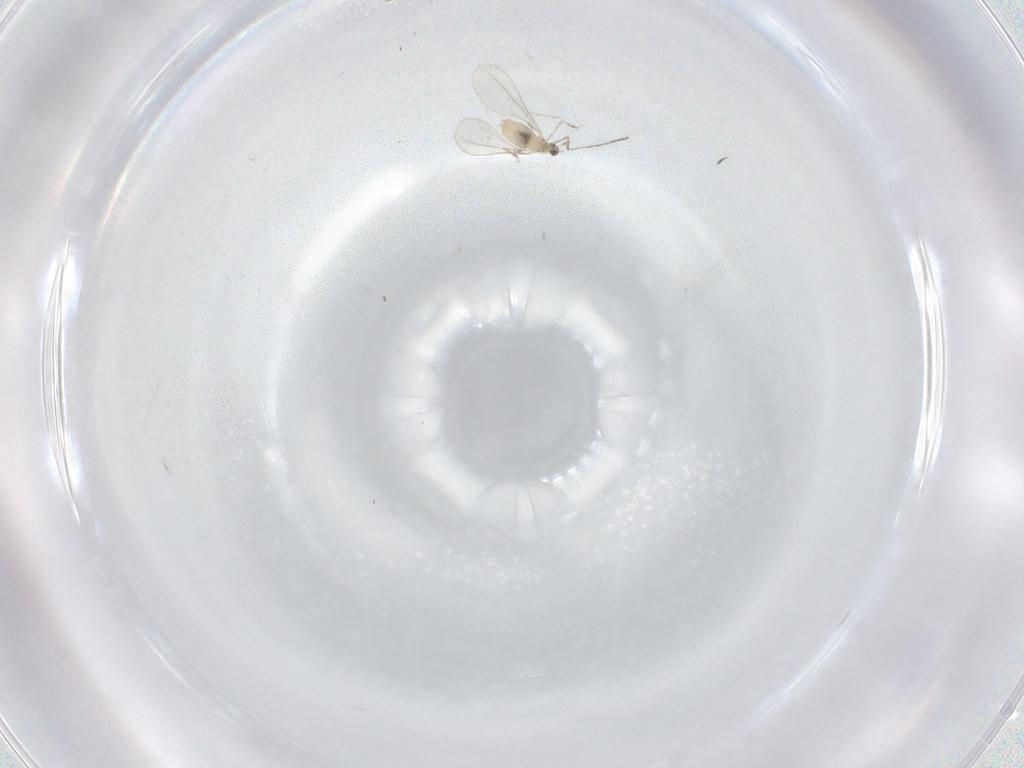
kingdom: Animalia
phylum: Arthropoda
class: Insecta
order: Diptera
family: Cecidomyiidae
